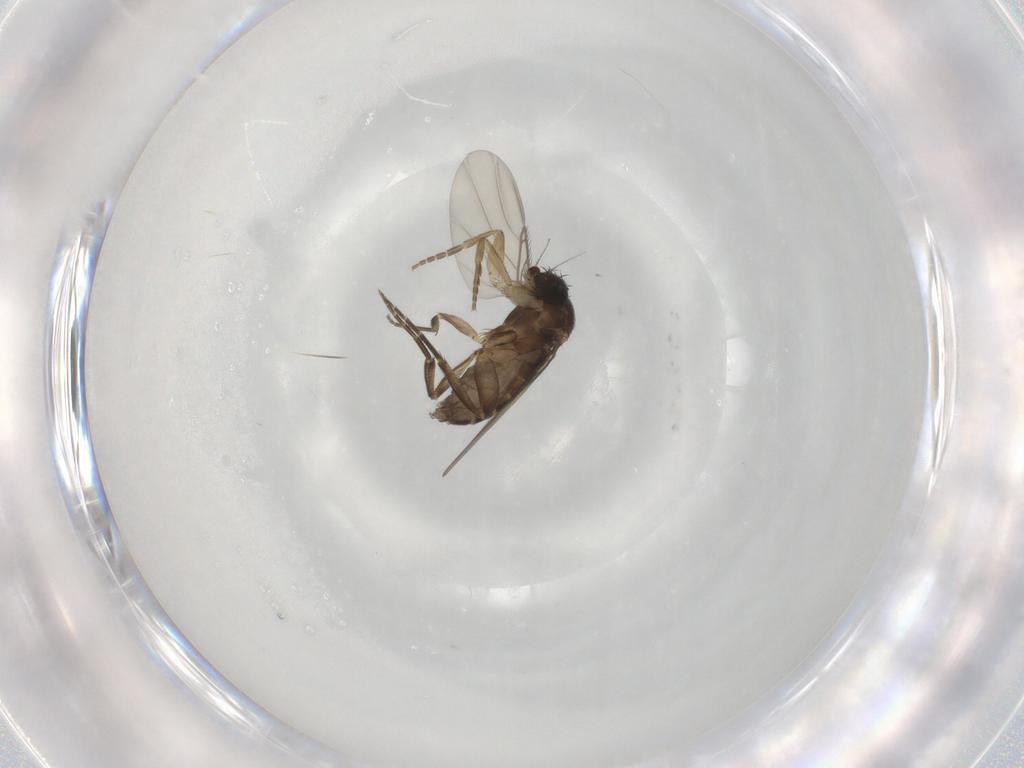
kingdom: Animalia
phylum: Arthropoda
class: Insecta
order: Diptera
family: Phoridae
